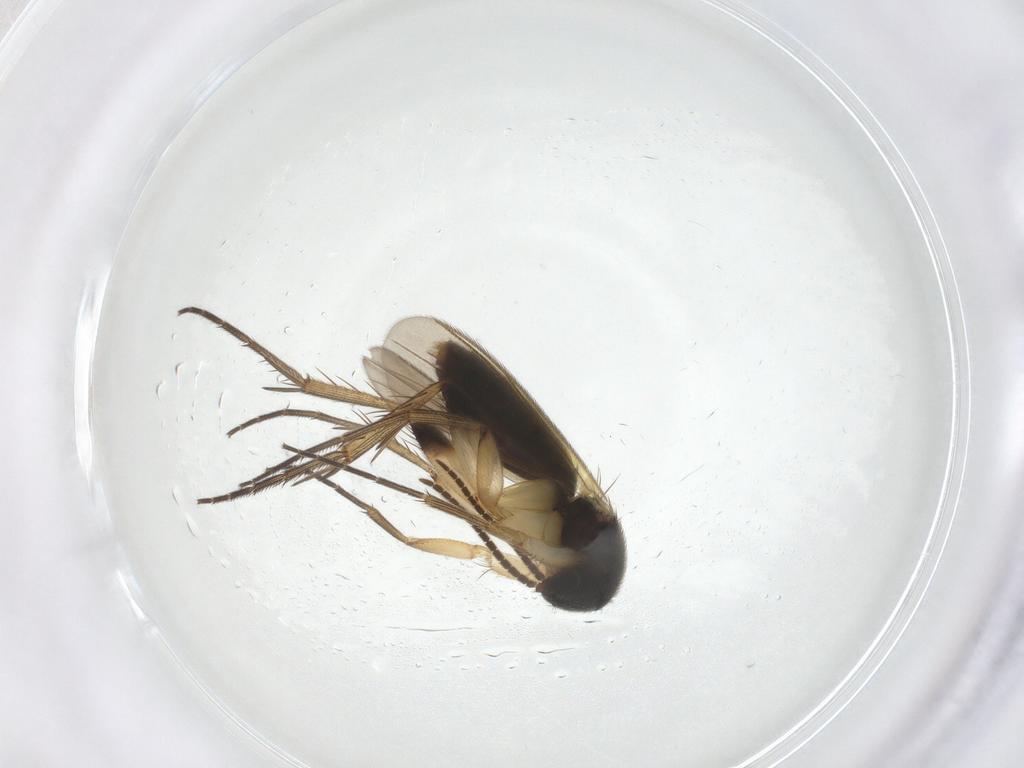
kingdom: Animalia
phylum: Arthropoda
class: Insecta
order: Diptera
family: Mycetophilidae
